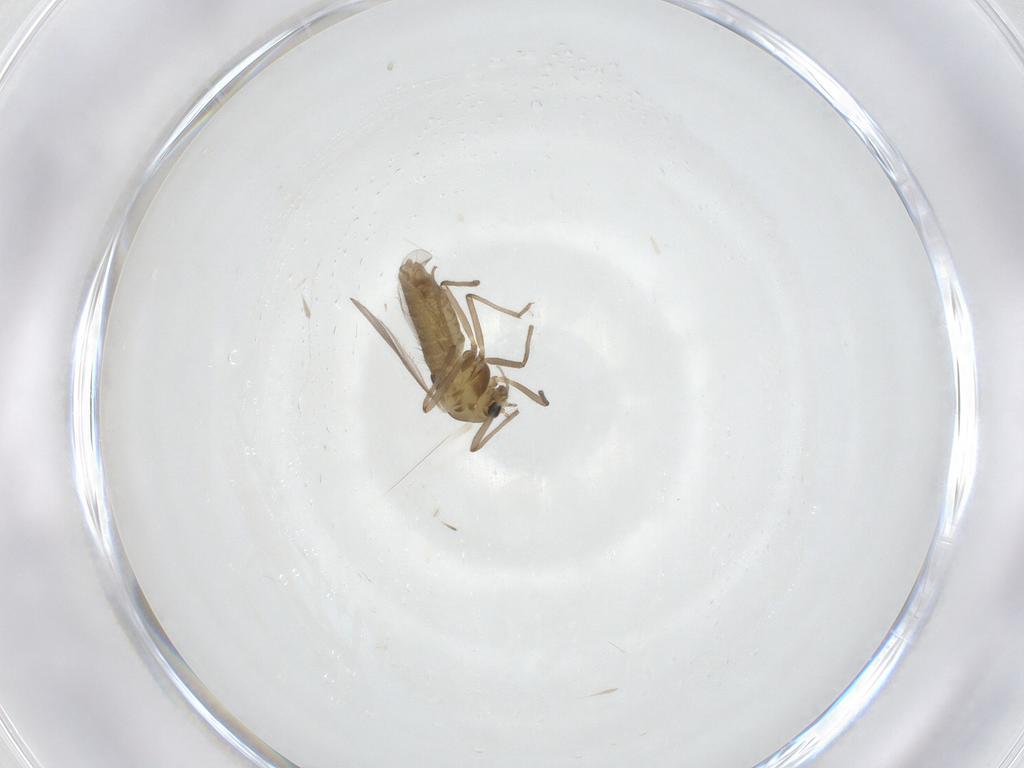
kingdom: Animalia
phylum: Arthropoda
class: Insecta
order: Diptera
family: Chironomidae
